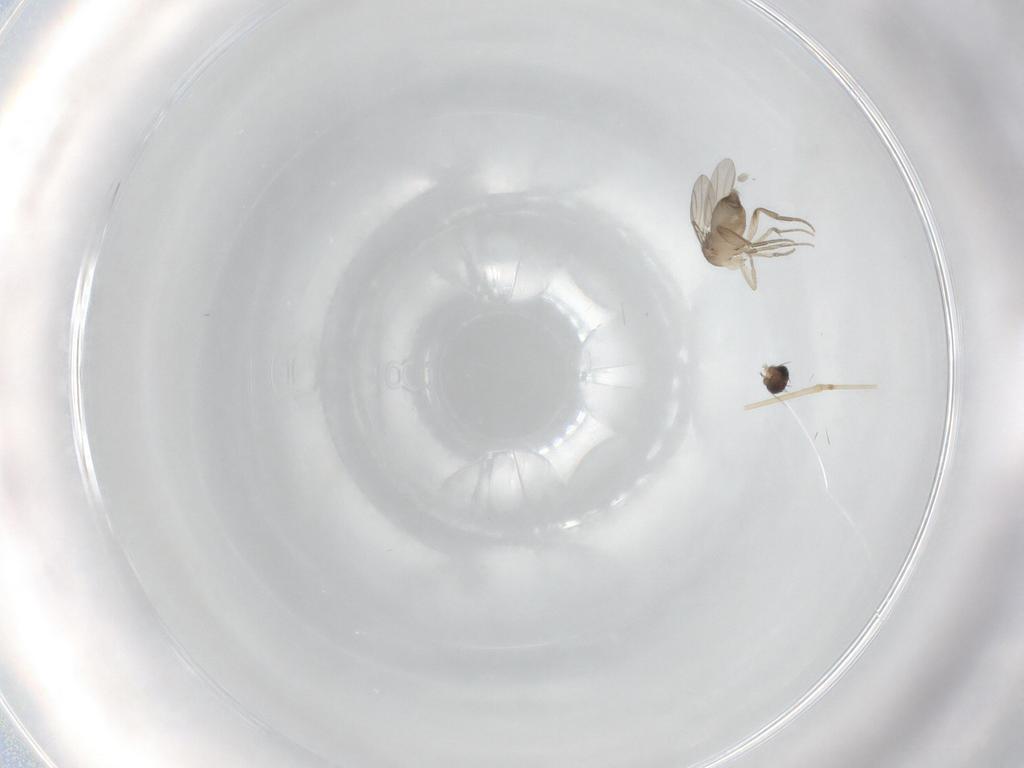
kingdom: Animalia
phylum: Arthropoda
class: Insecta
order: Diptera
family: Phoridae
